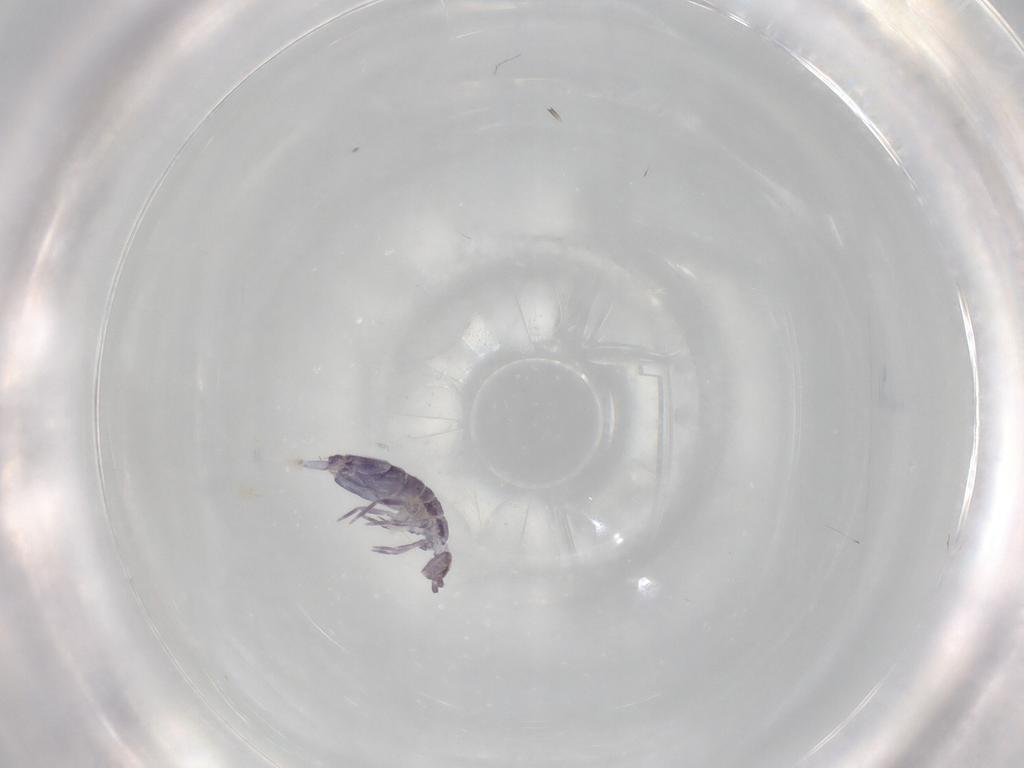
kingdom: Animalia
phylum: Arthropoda
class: Collembola
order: Entomobryomorpha
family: Entomobryidae
